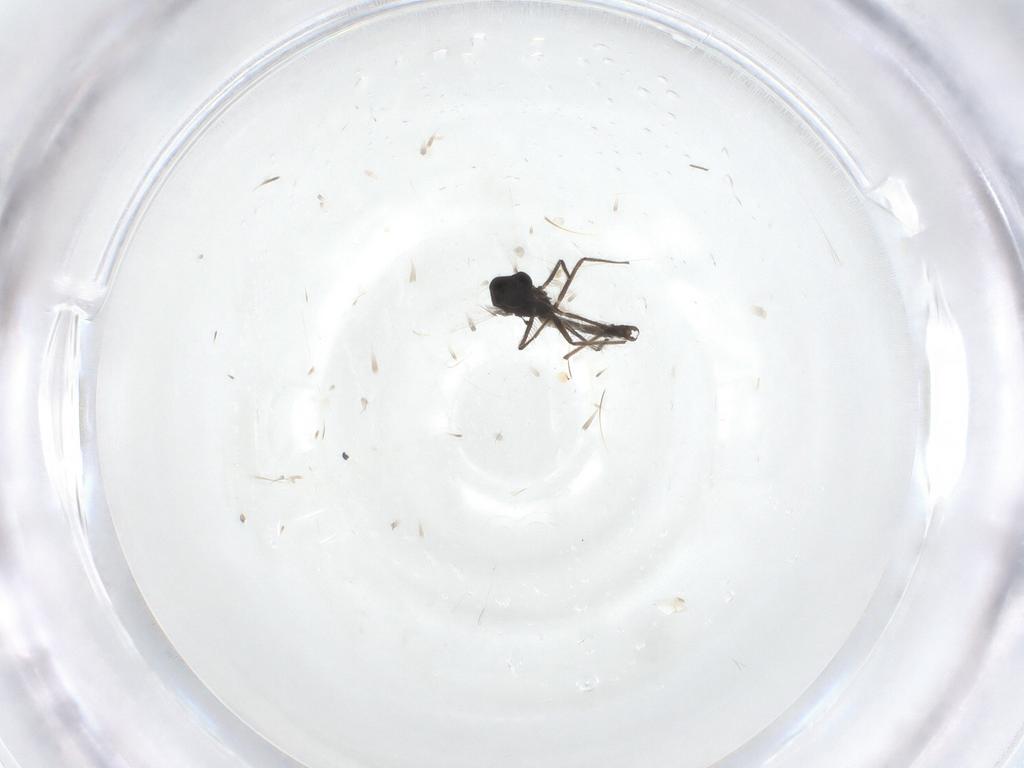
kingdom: Animalia
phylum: Arthropoda
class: Insecta
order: Diptera
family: Chironomidae
